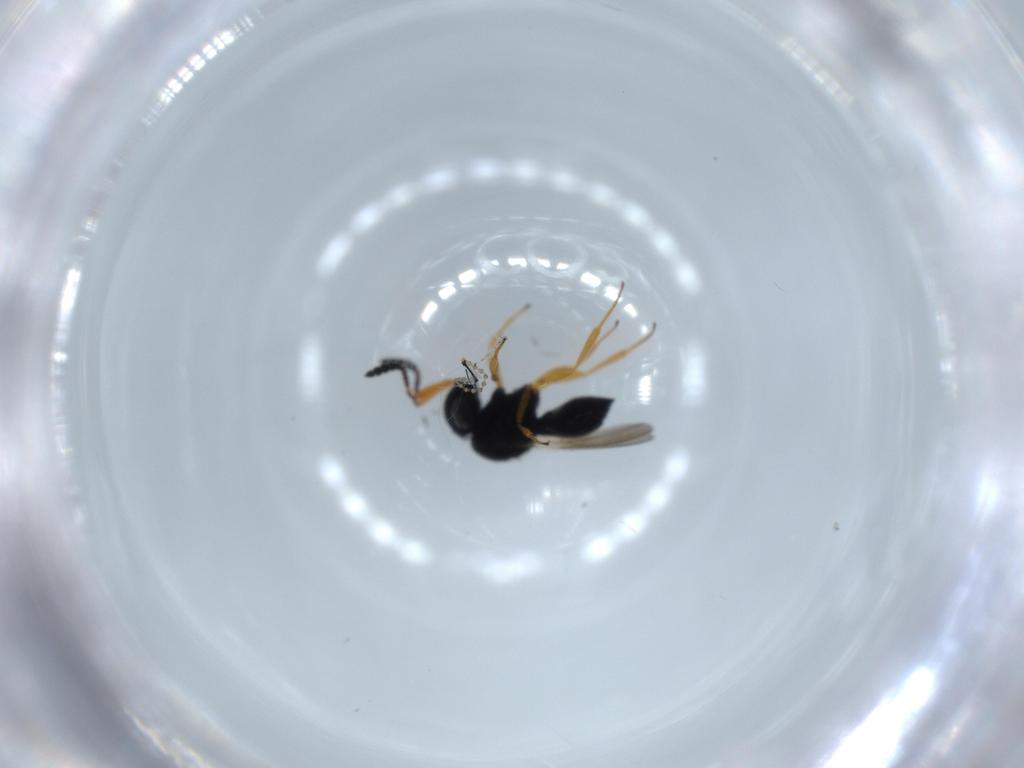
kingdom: Animalia
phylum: Arthropoda
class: Insecta
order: Hymenoptera
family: Scelionidae
